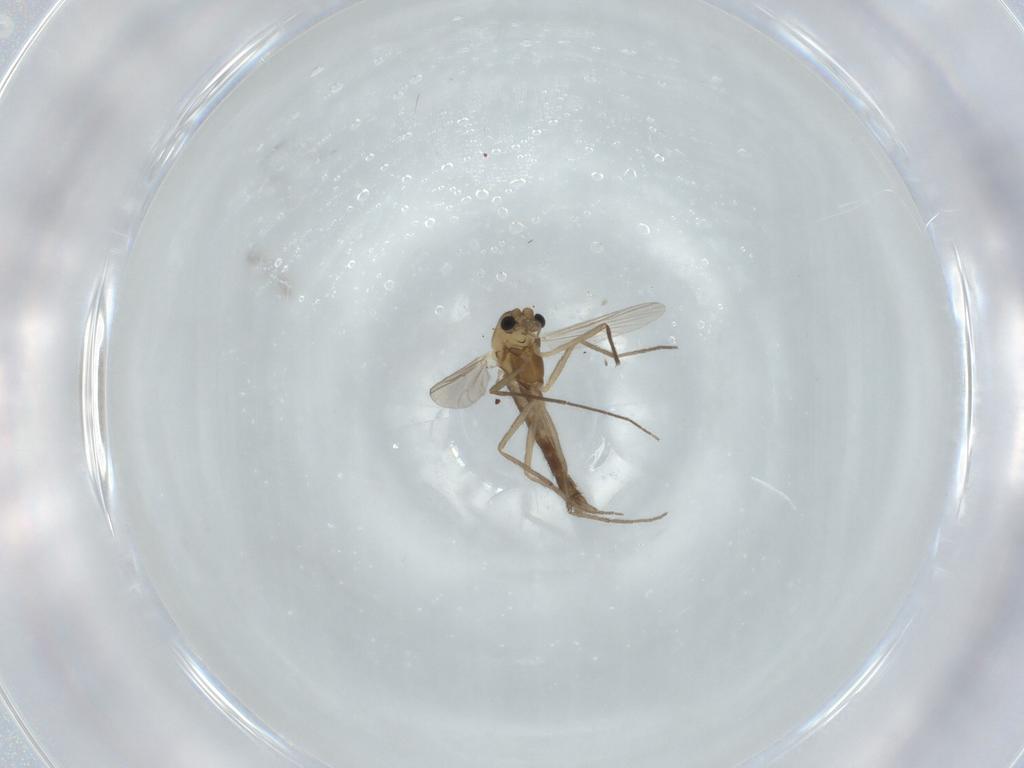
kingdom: Animalia
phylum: Arthropoda
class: Insecta
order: Diptera
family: Chironomidae
